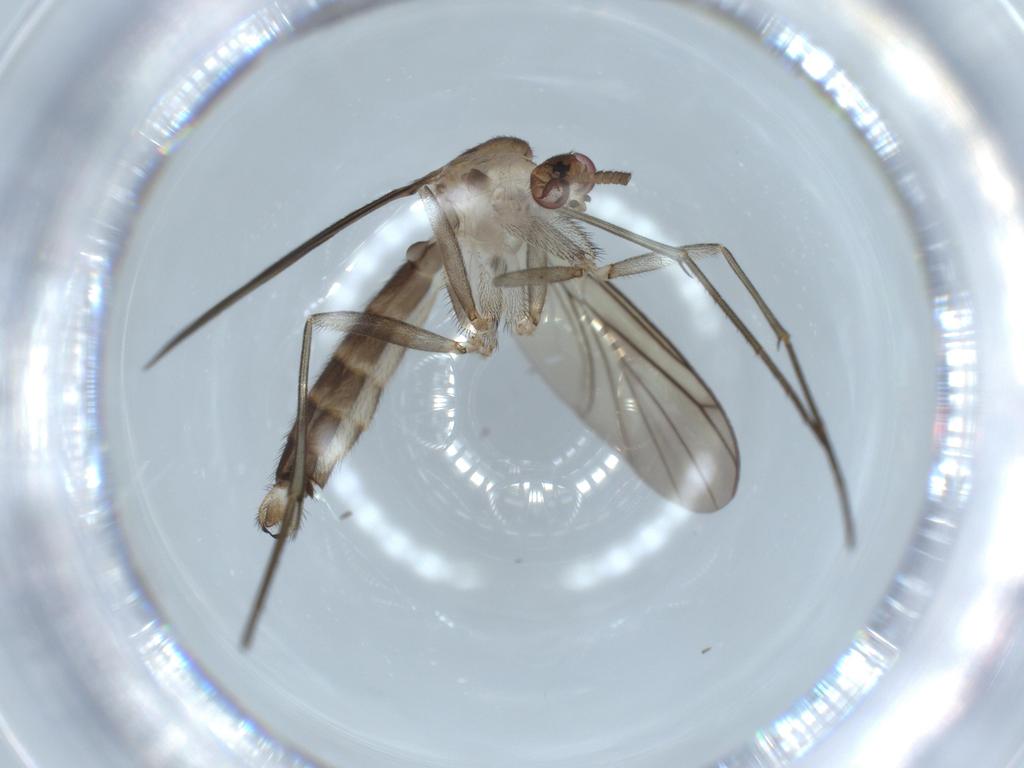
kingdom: Animalia
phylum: Arthropoda
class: Insecta
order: Diptera
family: Mycetophilidae
